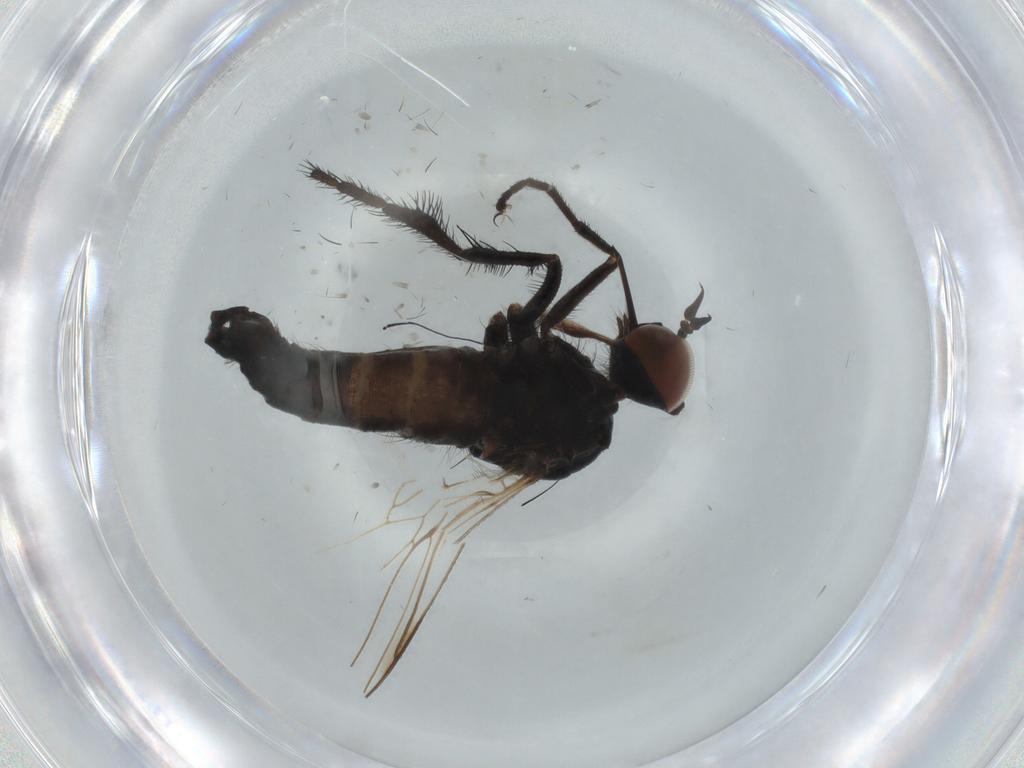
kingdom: Animalia
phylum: Arthropoda
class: Insecta
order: Diptera
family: Empididae
